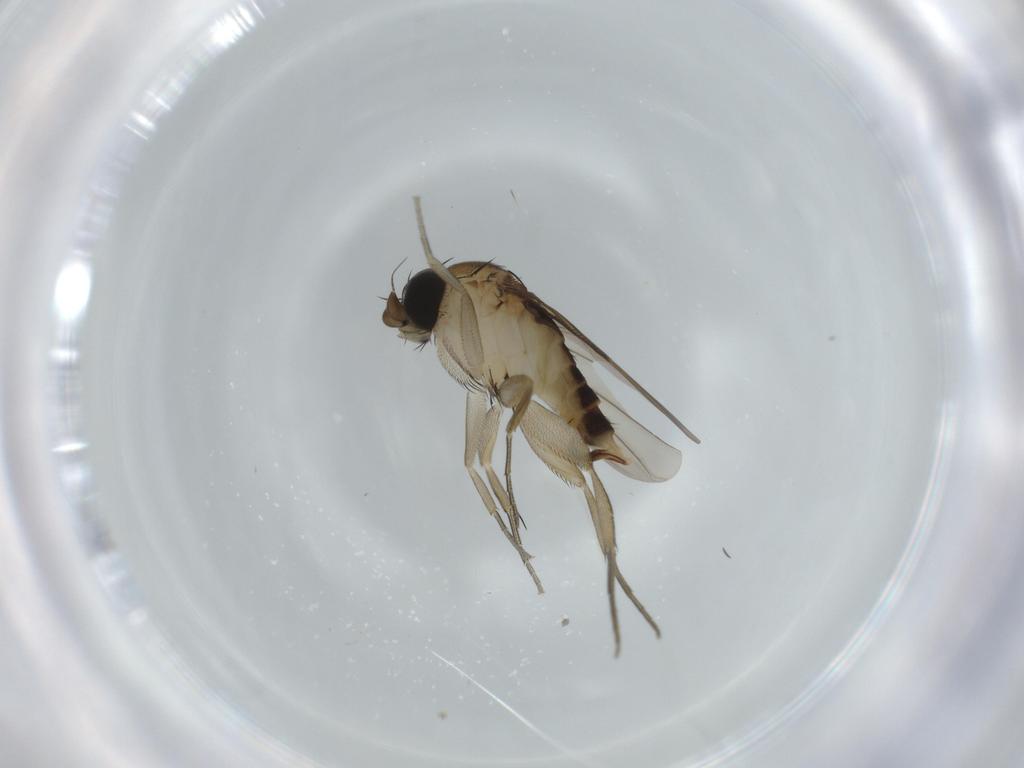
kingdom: Animalia
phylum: Arthropoda
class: Insecta
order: Diptera
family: Phoridae
